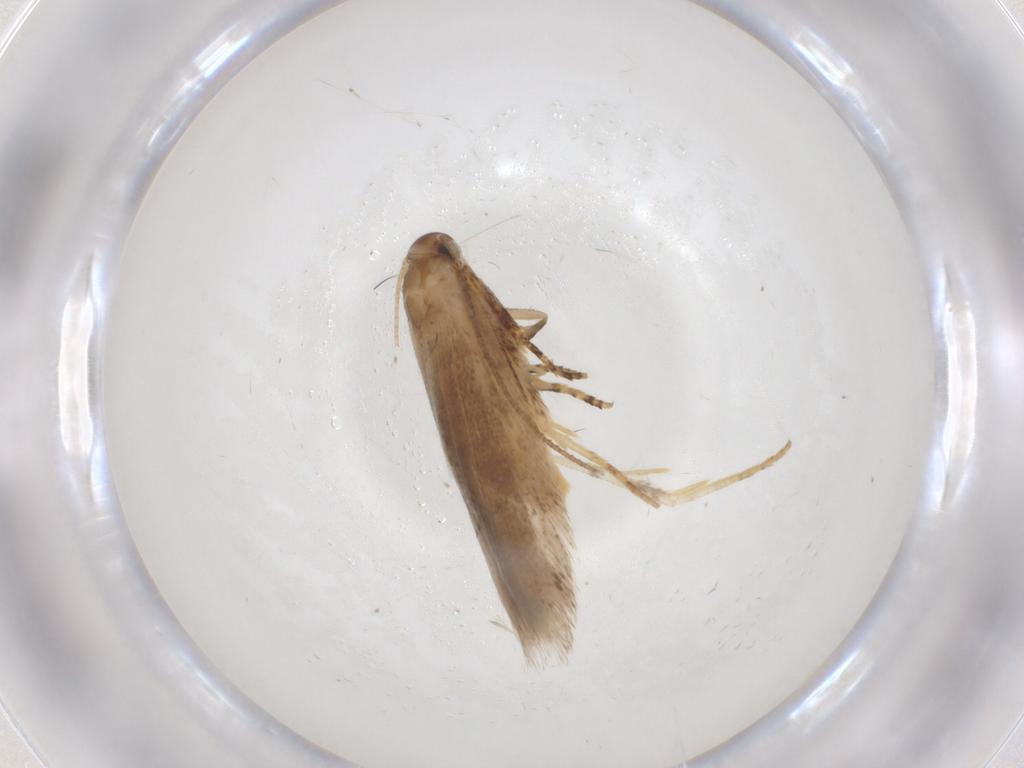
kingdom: Animalia
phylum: Arthropoda
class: Insecta
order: Lepidoptera
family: Gelechiidae
